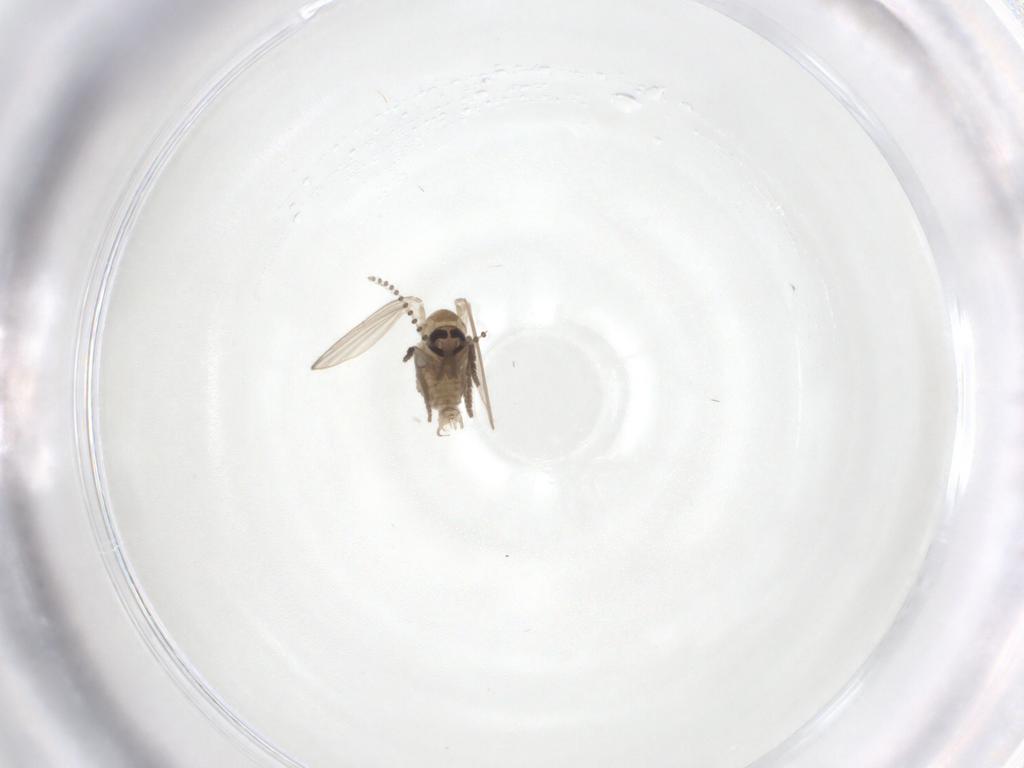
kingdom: Animalia
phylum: Arthropoda
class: Insecta
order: Diptera
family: Psychodidae
